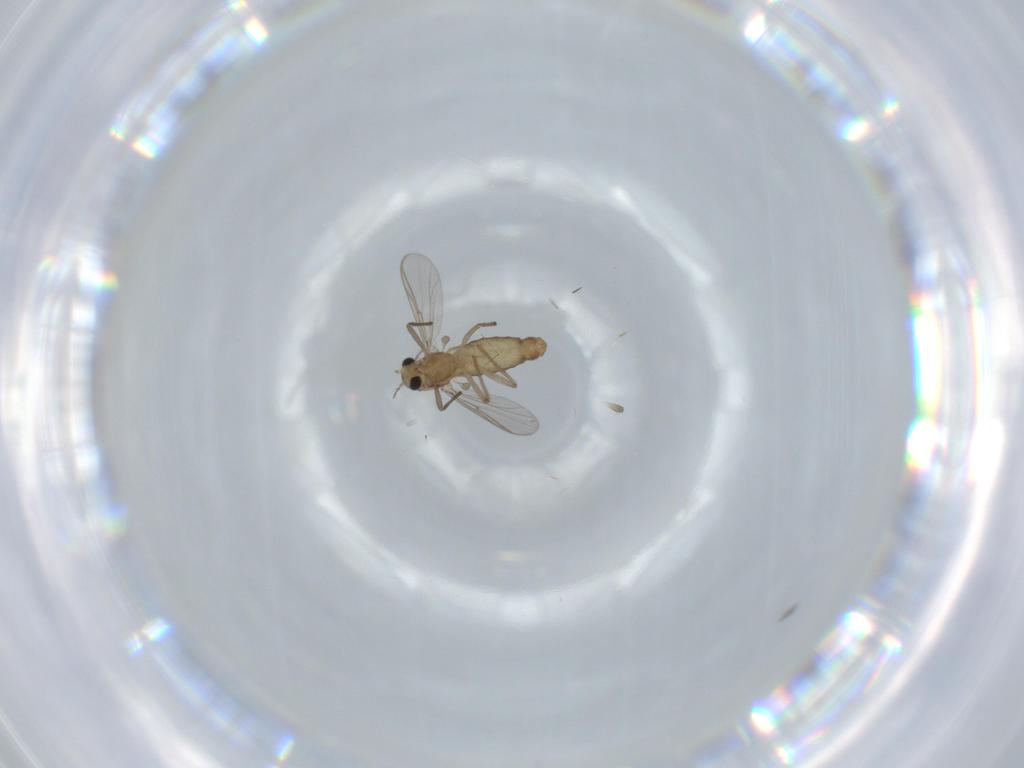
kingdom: Animalia
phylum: Arthropoda
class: Insecta
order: Diptera
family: Chironomidae
